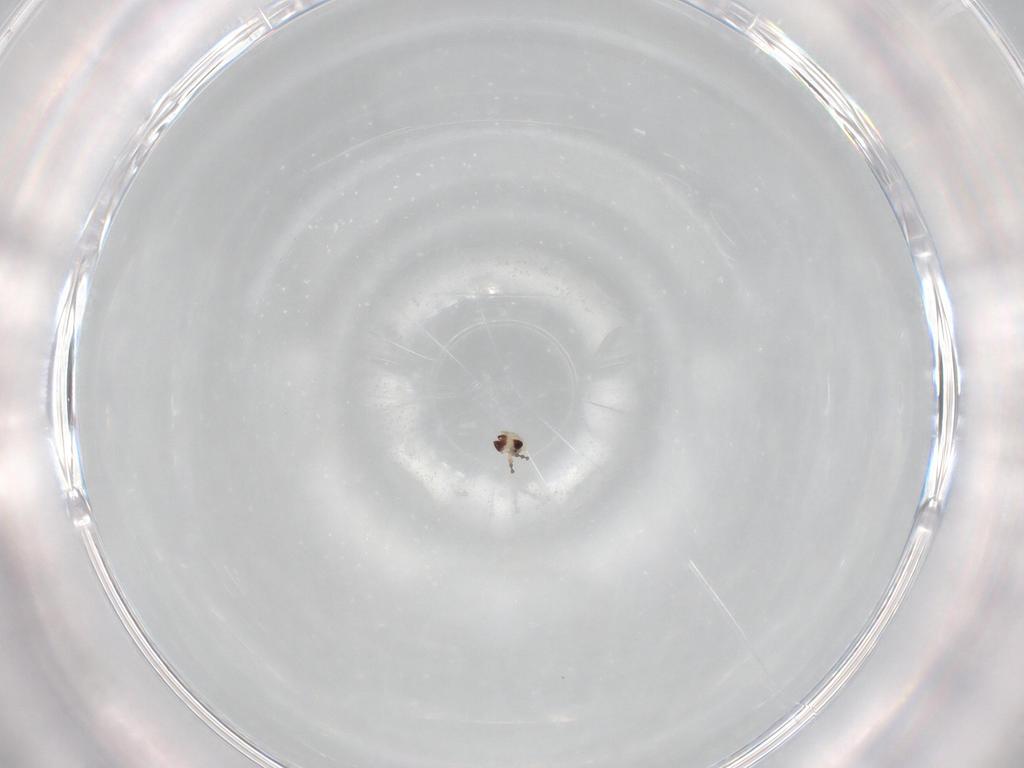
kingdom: Animalia
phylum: Arthropoda
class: Insecta
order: Diptera
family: Cecidomyiidae
